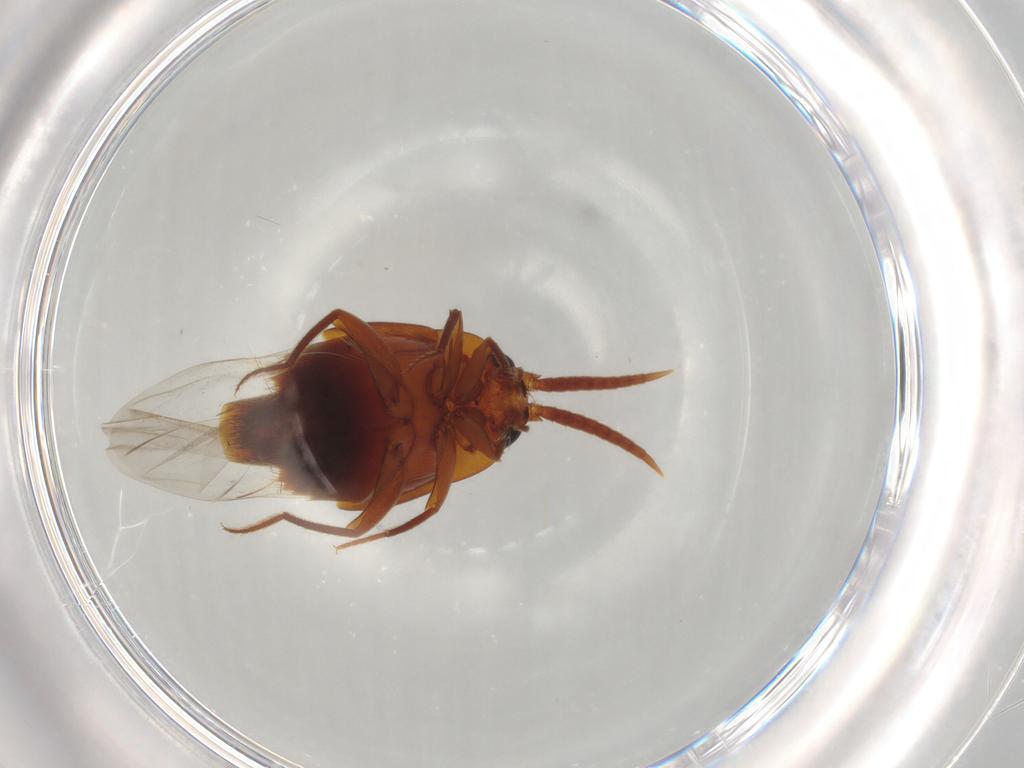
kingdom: Animalia
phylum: Arthropoda
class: Insecta
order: Coleoptera
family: Staphylinidae
